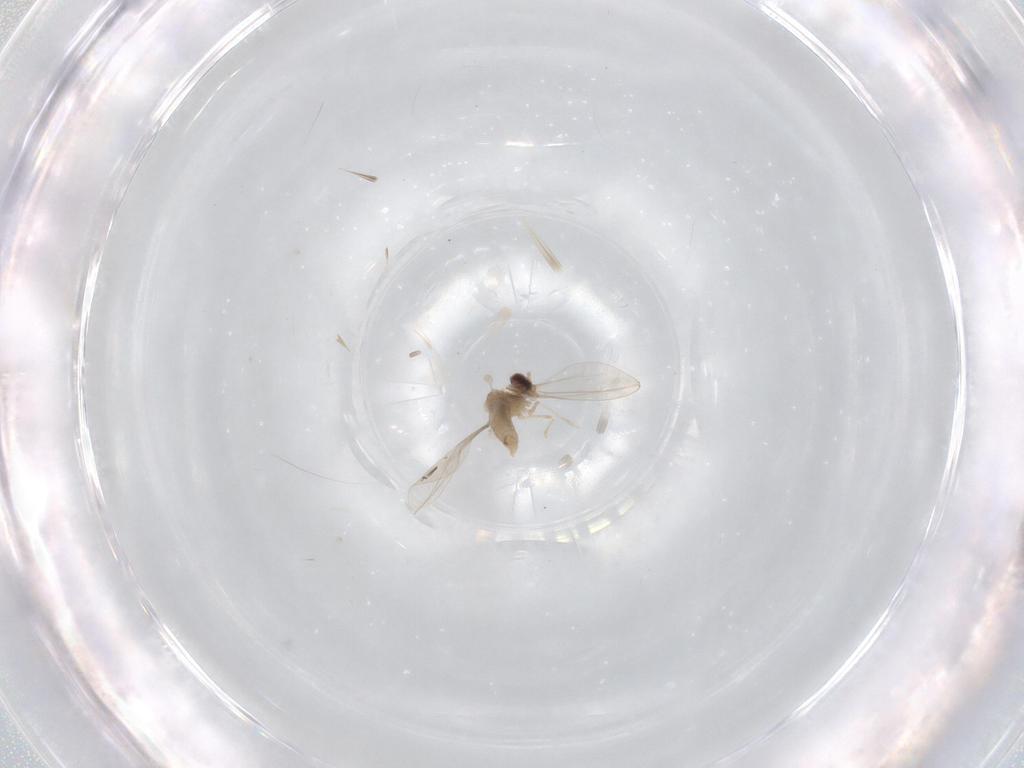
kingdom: Animalia
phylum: Arthropoda
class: Insecta
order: Diptera
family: Cecidomyiidae
